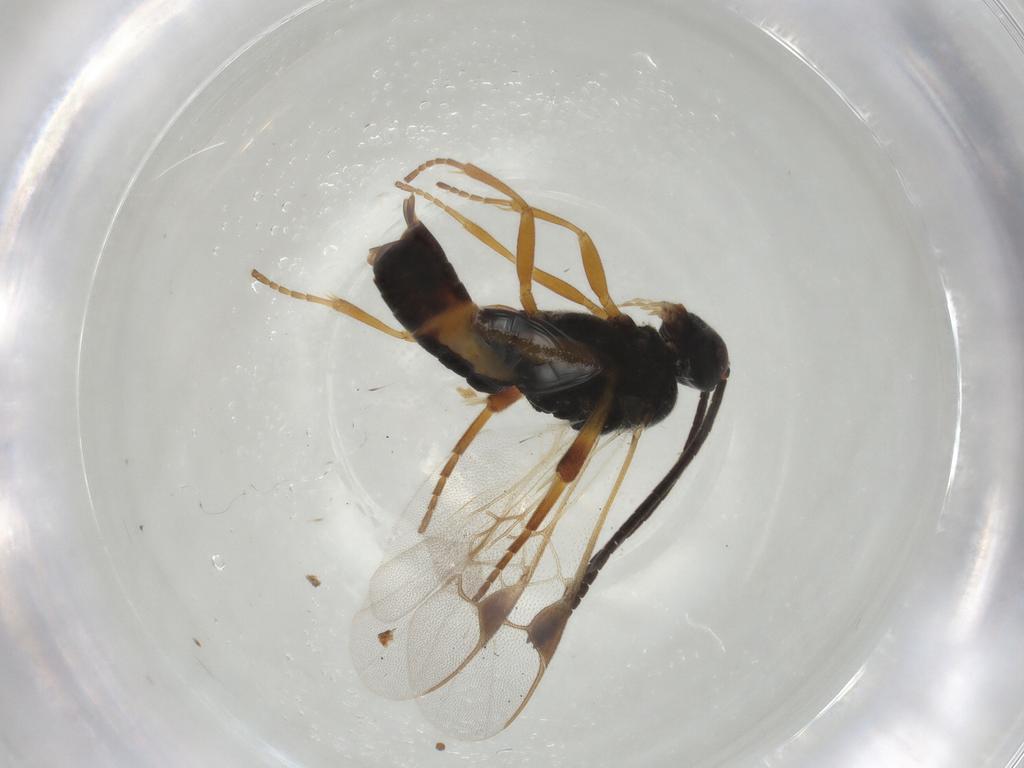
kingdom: Animalia
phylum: Arthropoda
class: Insecta
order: Hymenoptera
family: Braconidae
